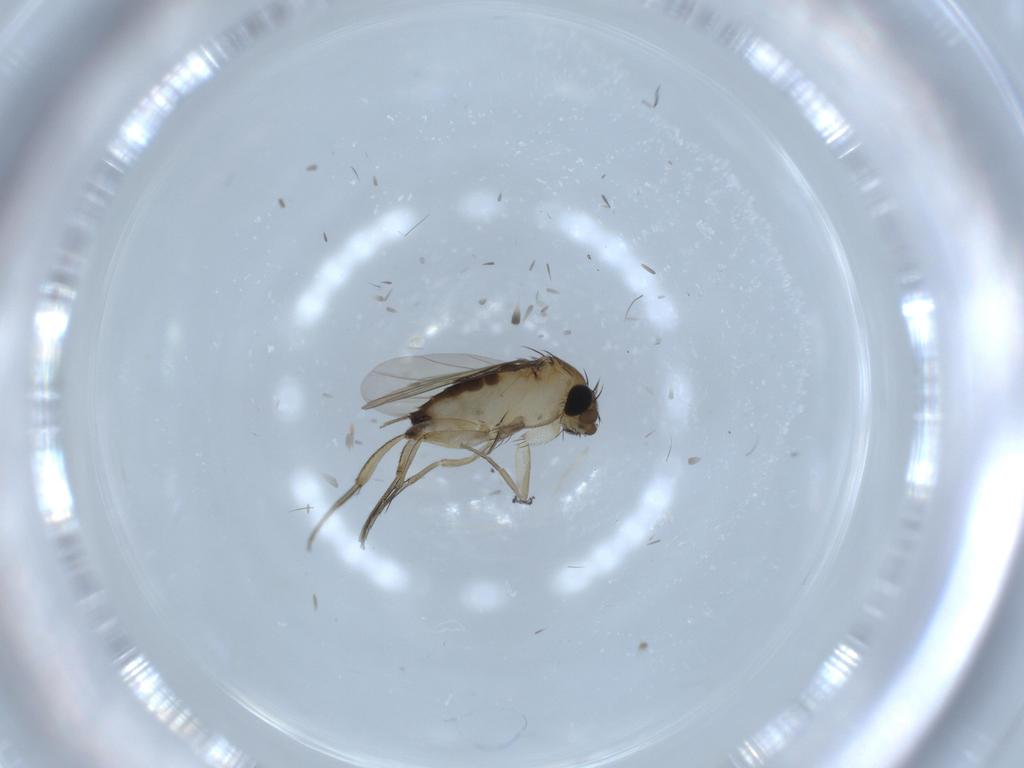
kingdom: Animalia
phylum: Arthropoda
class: Insecta
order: Diptera
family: Phoridae
